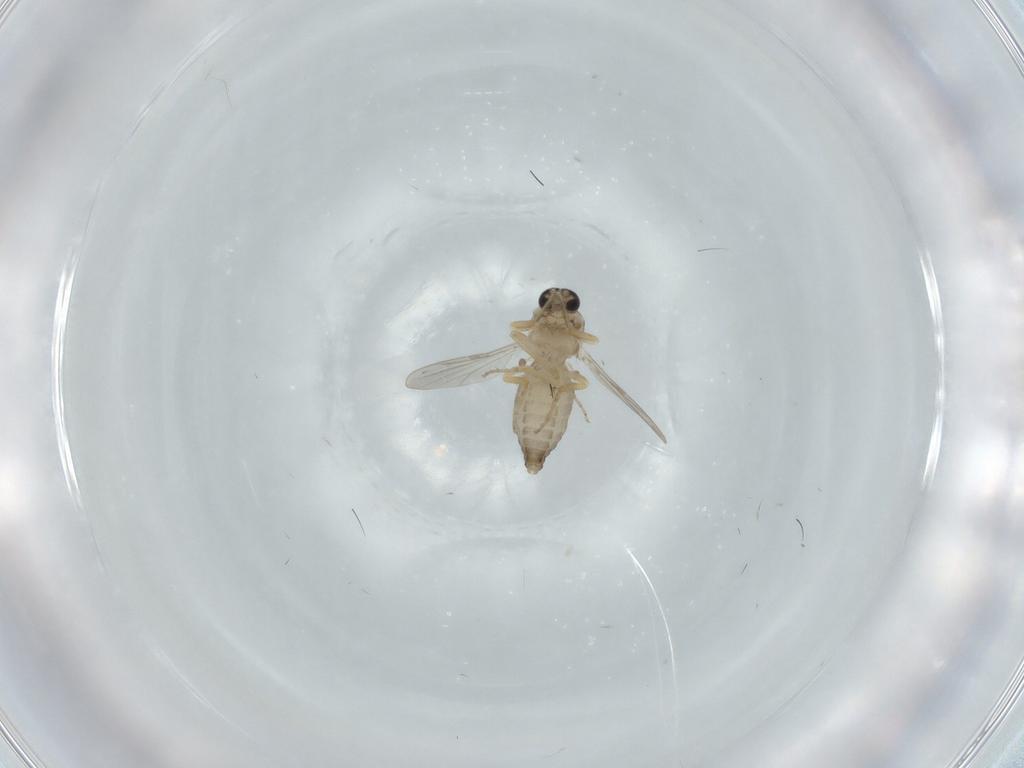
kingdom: Animalia
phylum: Arthropoda
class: Insecta
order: Diptera
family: Ceratopogonidae
